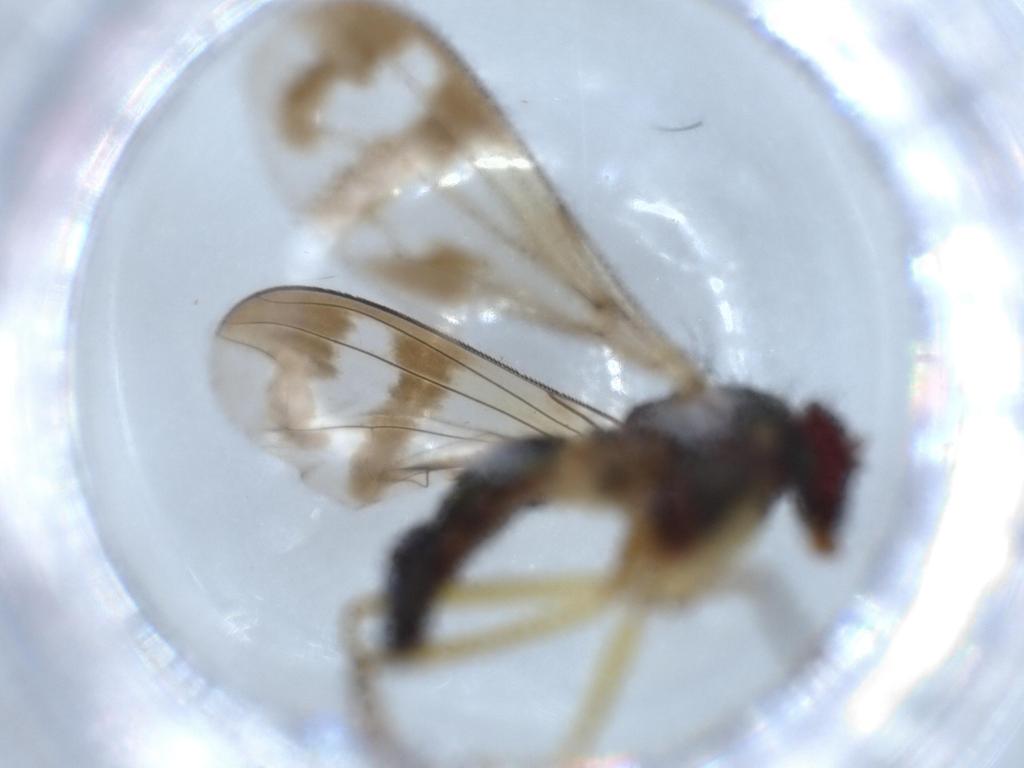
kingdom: Animalia
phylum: Arthropoda
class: Insecta
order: Diptera
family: Dolichopodidae
